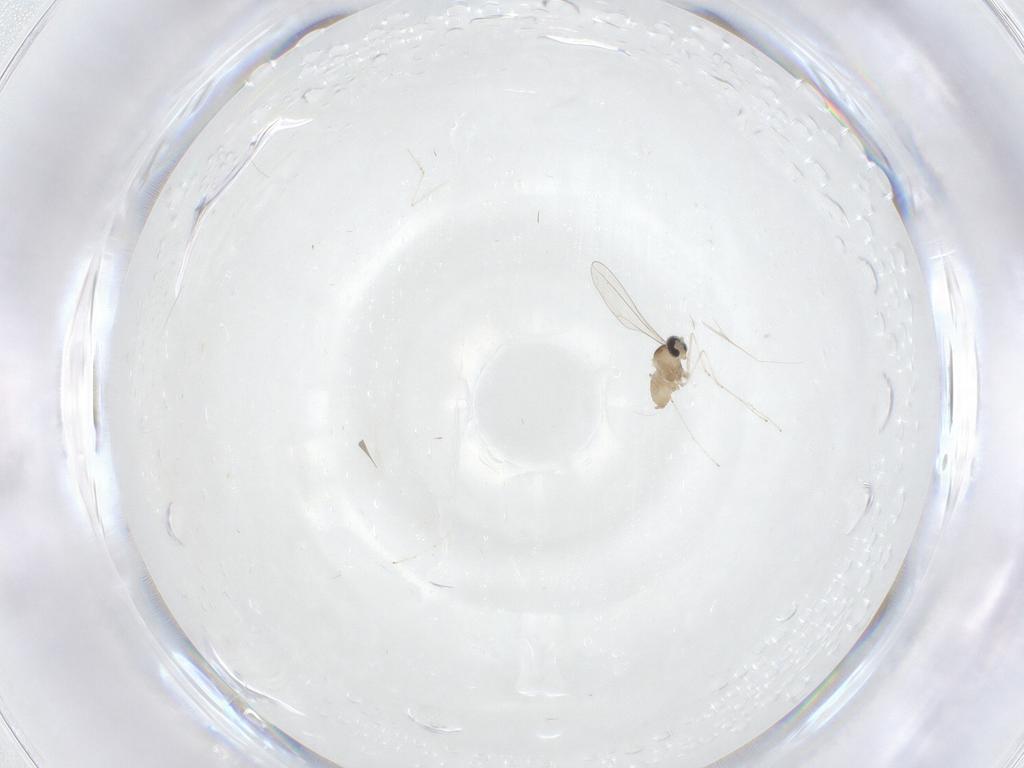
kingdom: Animalia
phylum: Arthropoda
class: Insecta
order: Diptera
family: Cecidomyiidae
